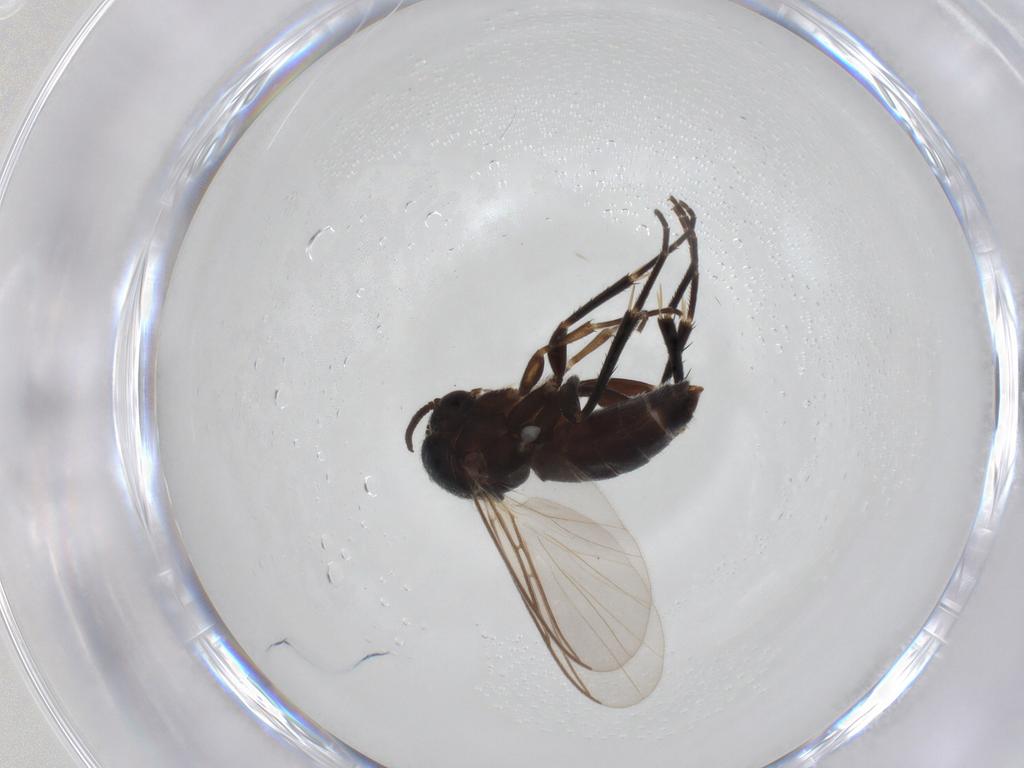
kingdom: Animalia
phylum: Arthropoda
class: Insecta
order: Diptera
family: Mycetophilidae
